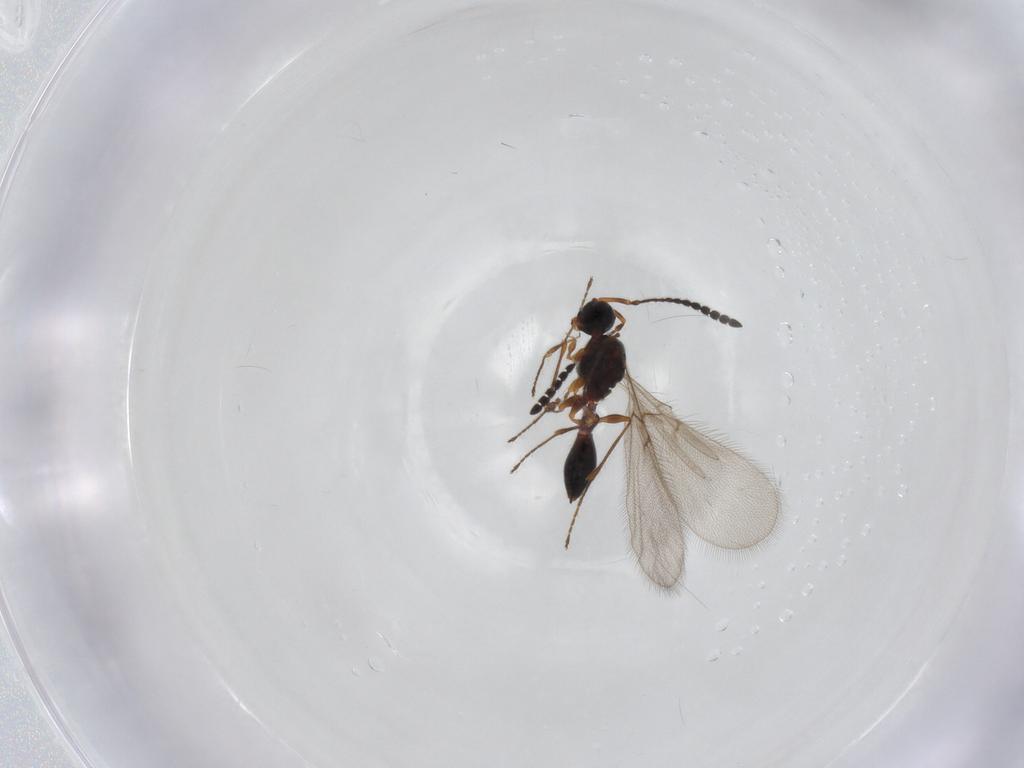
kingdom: Animalia
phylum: Arthropoda
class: Insecta
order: Hymenoptera
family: Diapriidae
